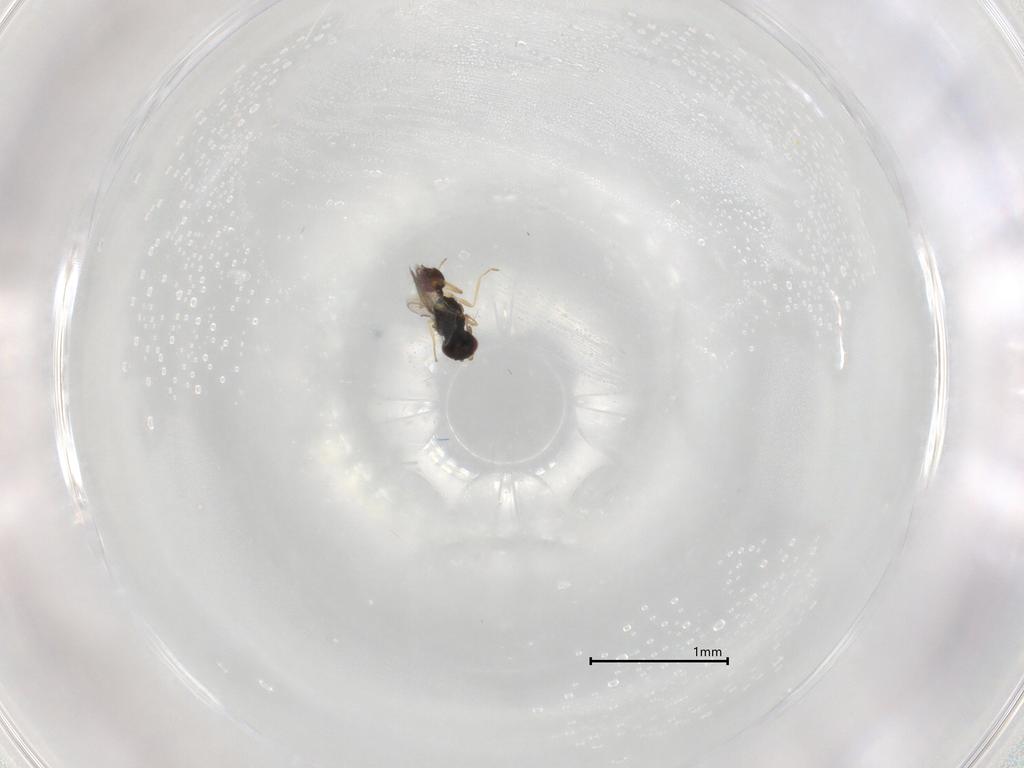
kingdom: Animalia
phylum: Arthropoda
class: Insecta
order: Hymenoptera
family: Eulophidae
